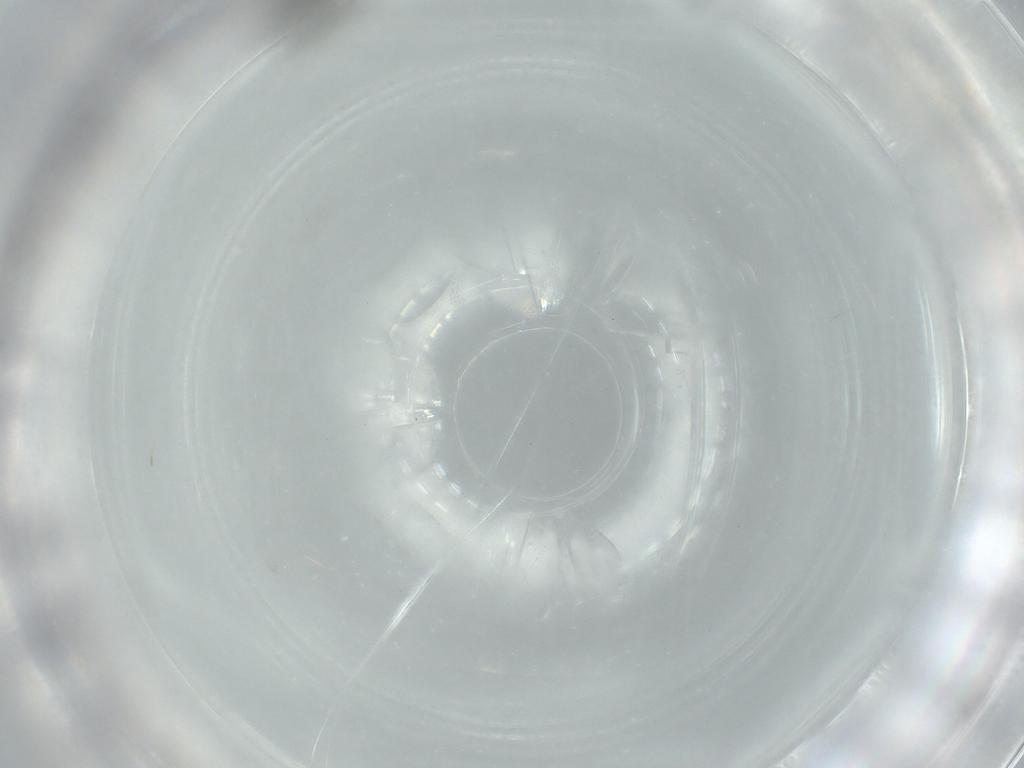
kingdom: Animalia
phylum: Arthropoda
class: Insecta
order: Diptera
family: Sciaridae
